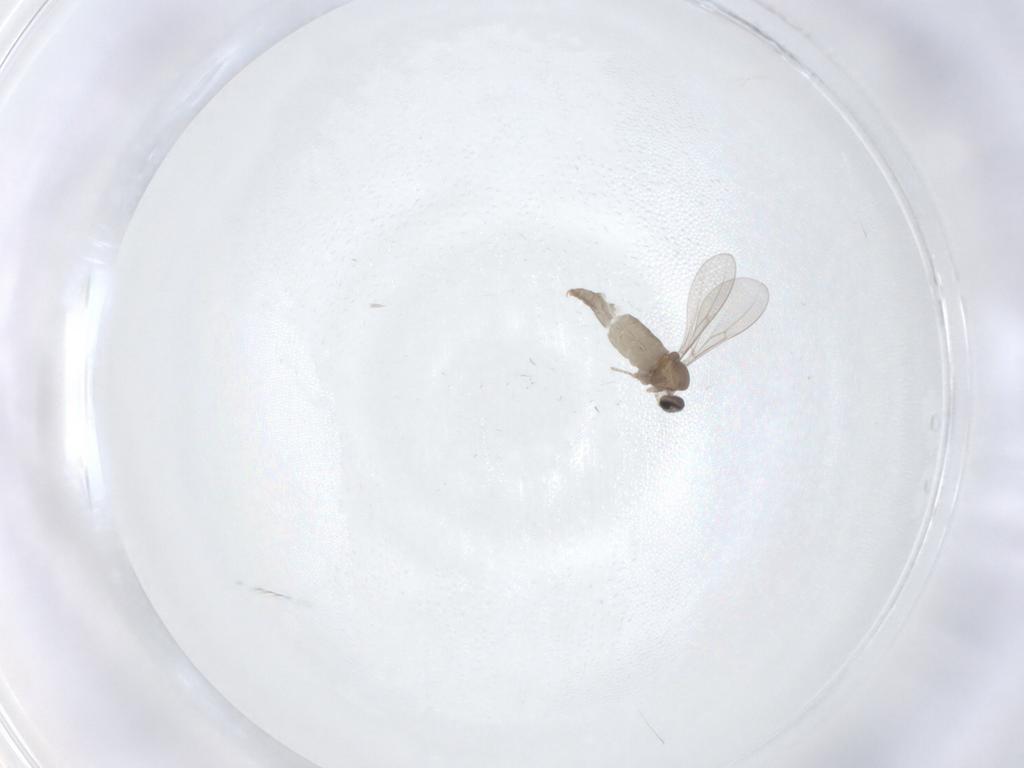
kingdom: Animalia
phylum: Arthropoda
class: Insecta
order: Diptera
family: Cecidomyiidae
